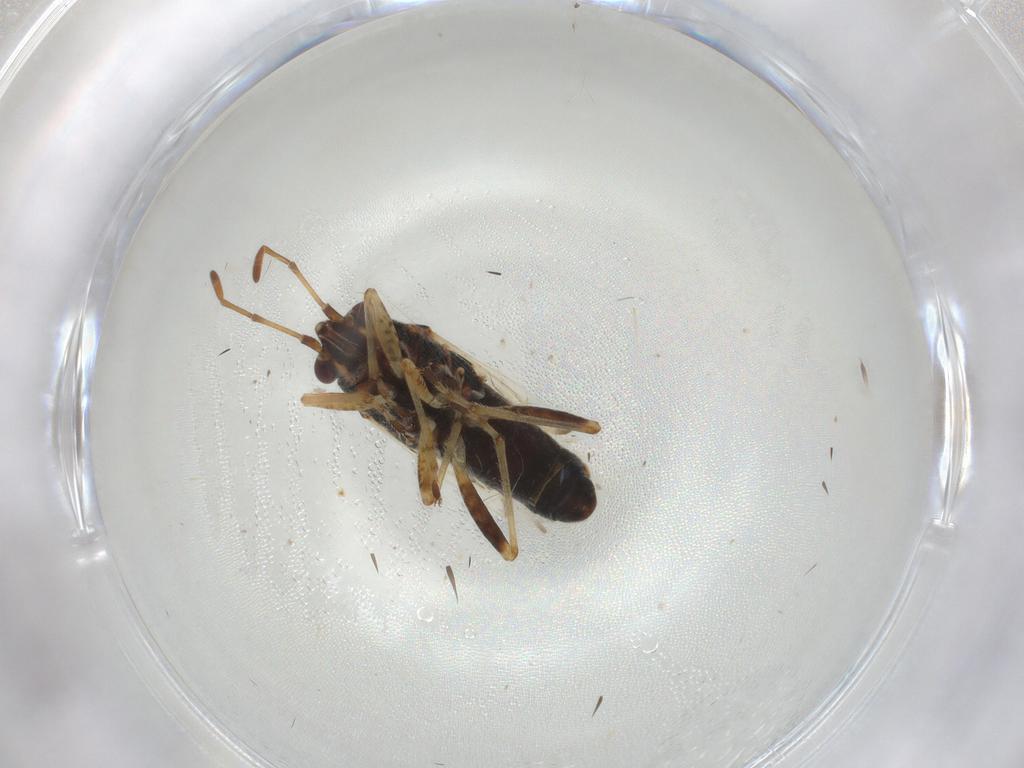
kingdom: Animalia
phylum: Arthropoda
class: Insecta
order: Hemiptera
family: Lygaeidae
